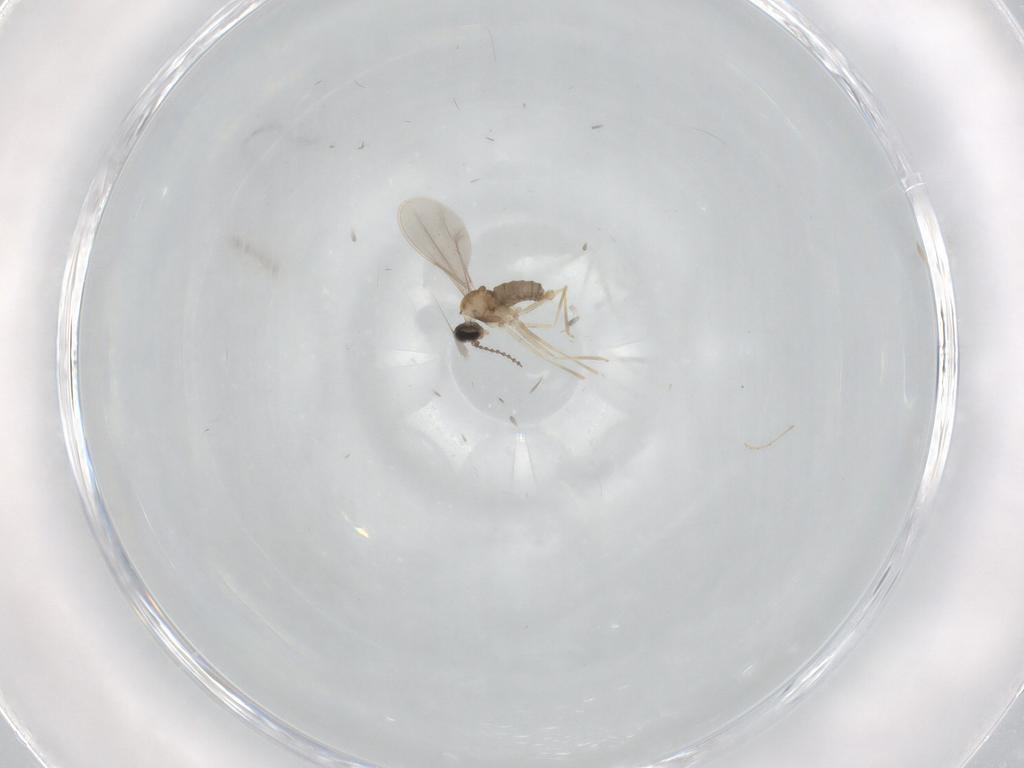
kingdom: Animalia
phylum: Arthropoda
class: Insecta
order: Diptera
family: Cecidomyiidae
